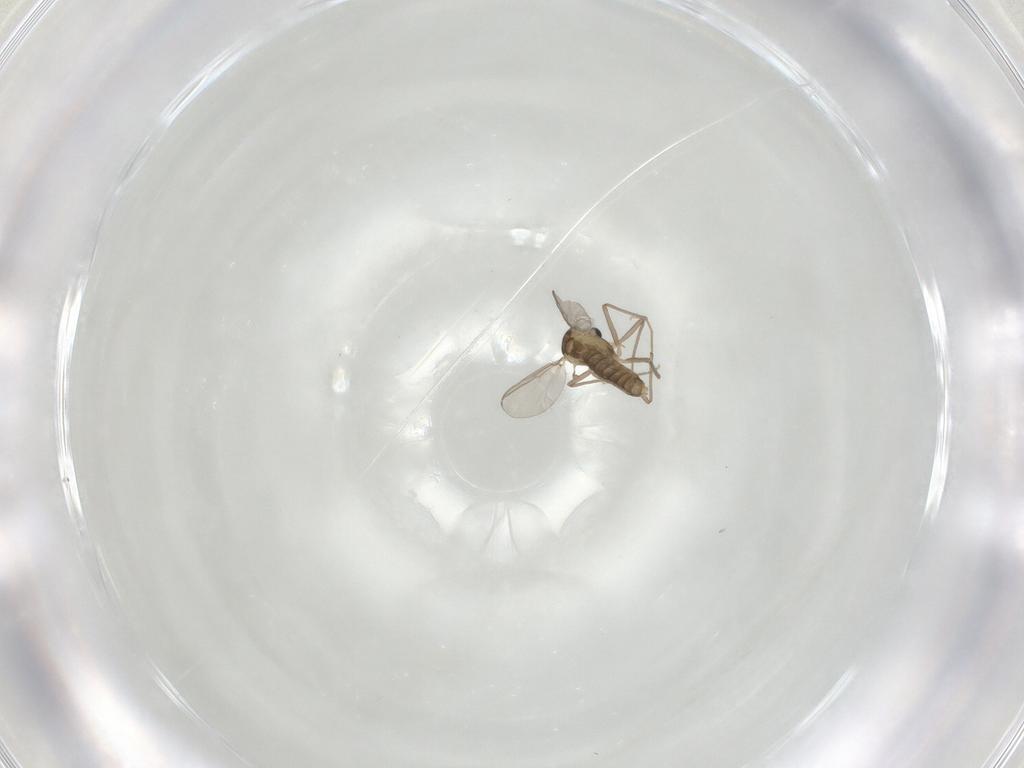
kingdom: Animalia
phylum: Arthropoda
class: Insecta
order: Diptera
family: Chironomidae
